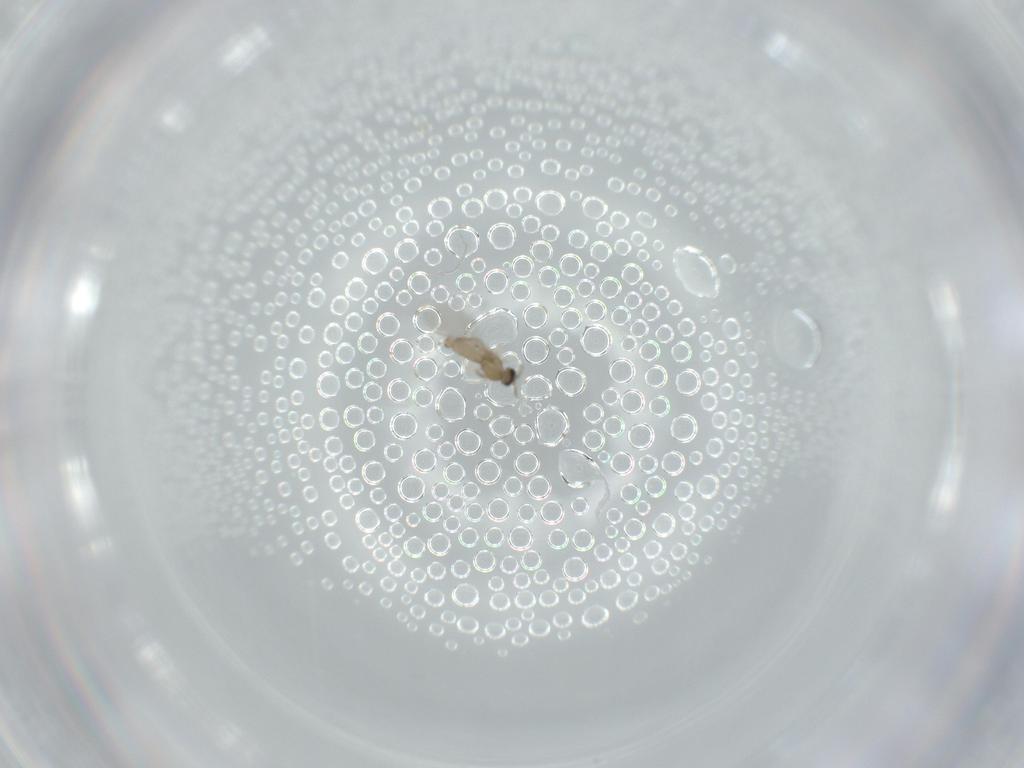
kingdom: Animalia
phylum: Arthropoda
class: Insecta
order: Diptera
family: Cecidomyiidae
